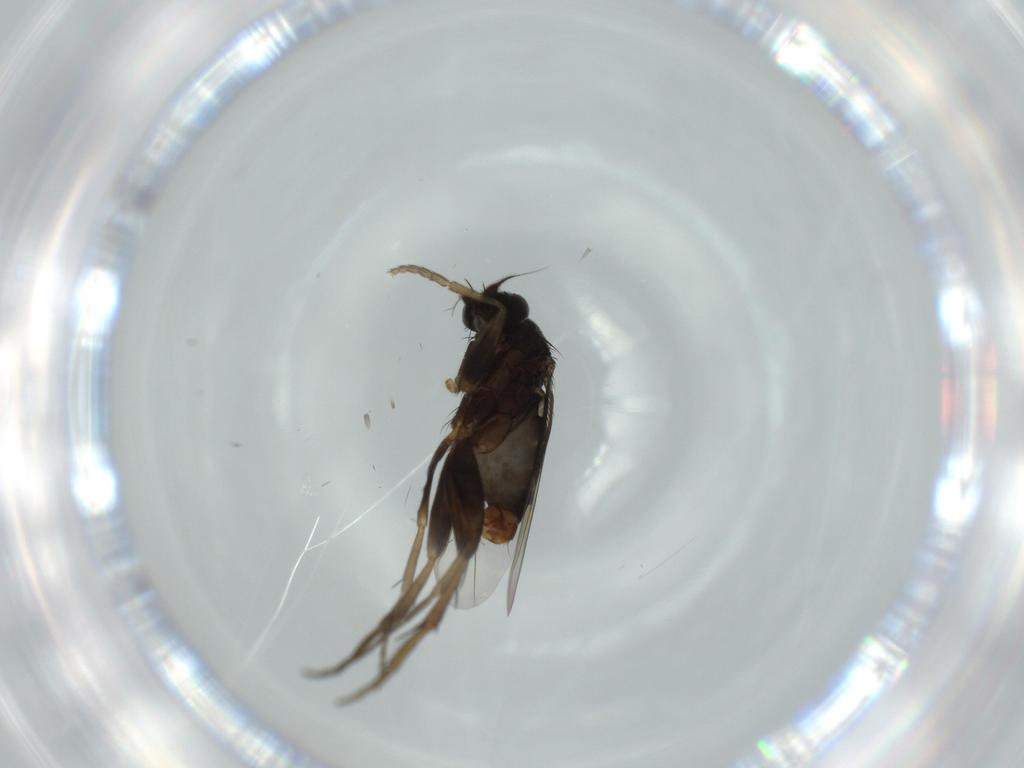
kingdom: Animalia
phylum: Arthropoda
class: Insecta
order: Diptera
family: Phoridae
